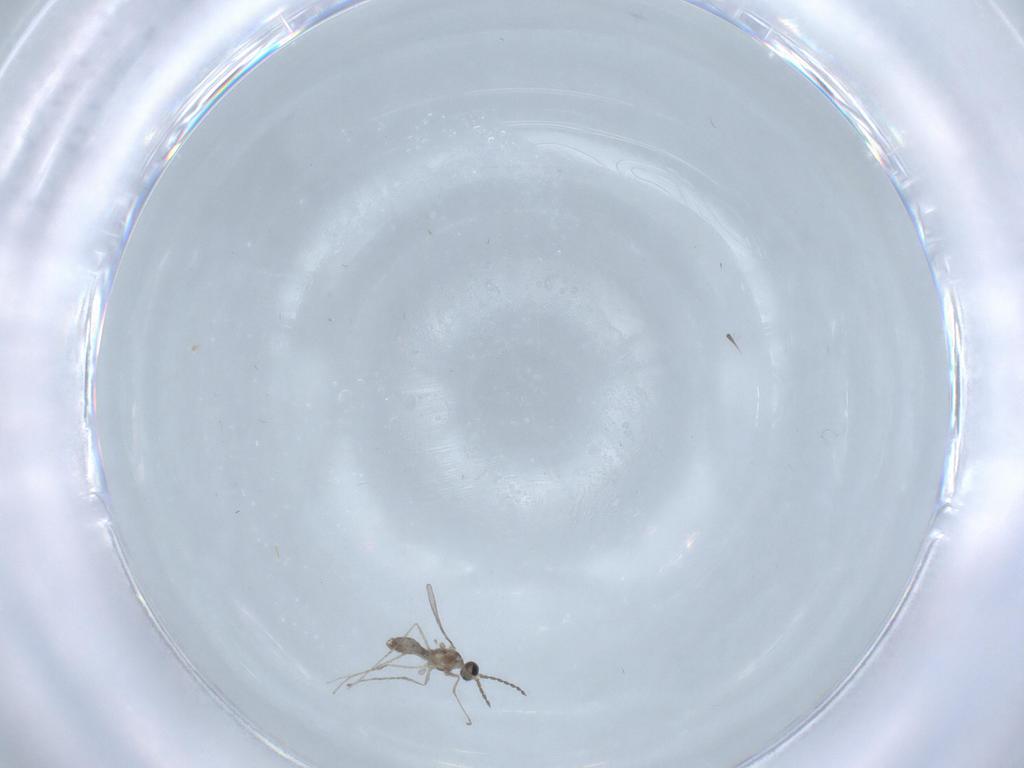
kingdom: Animalia
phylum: Arthropoda
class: Insecta
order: Diptera
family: Chironomidae
